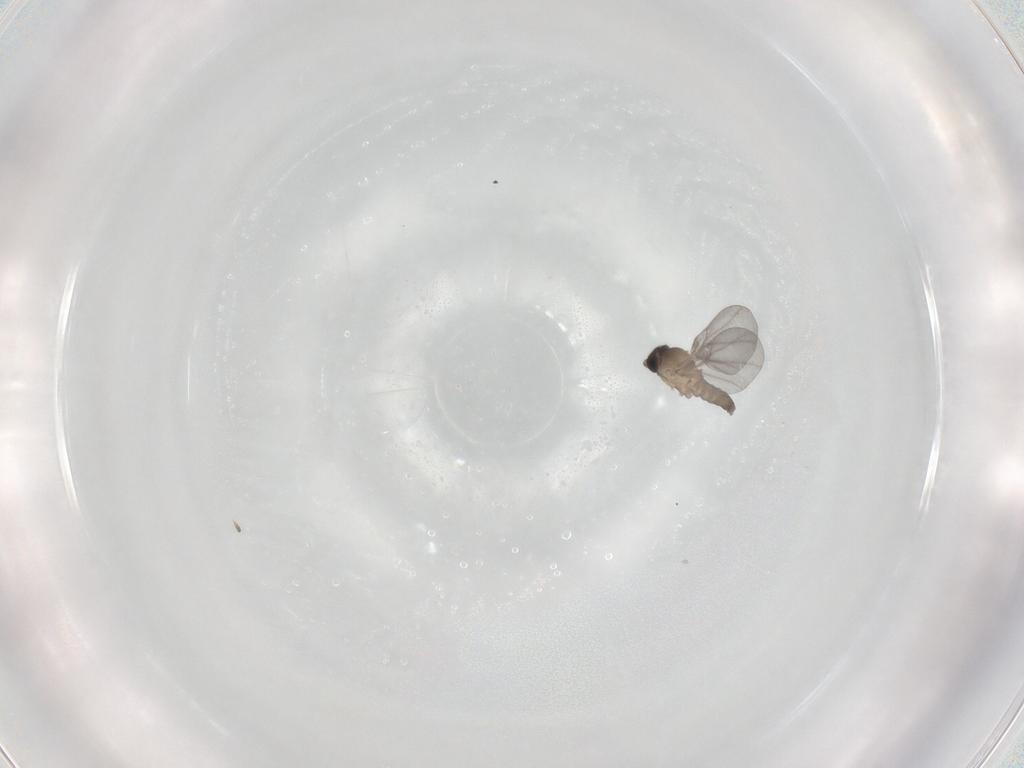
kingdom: Animalia
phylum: Arthropoda
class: Insecta
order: Diptera
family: Cecidomyiidae
